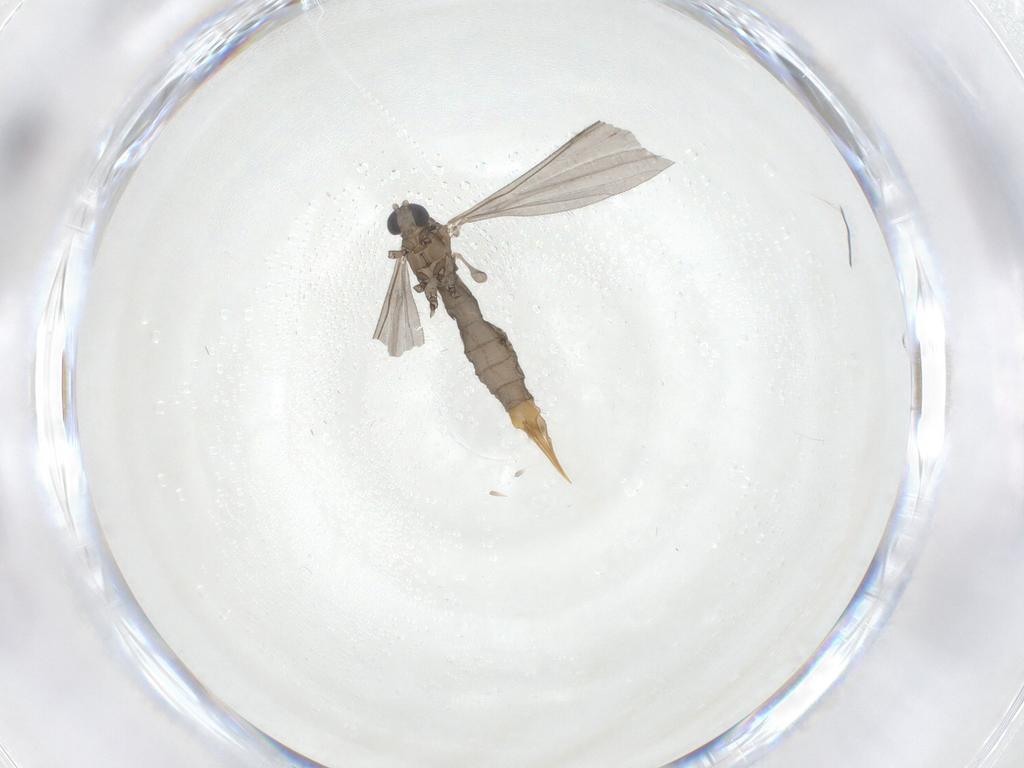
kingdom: Animalia
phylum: Arthropoda
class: Insecta
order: Diptera
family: Limoniidae
